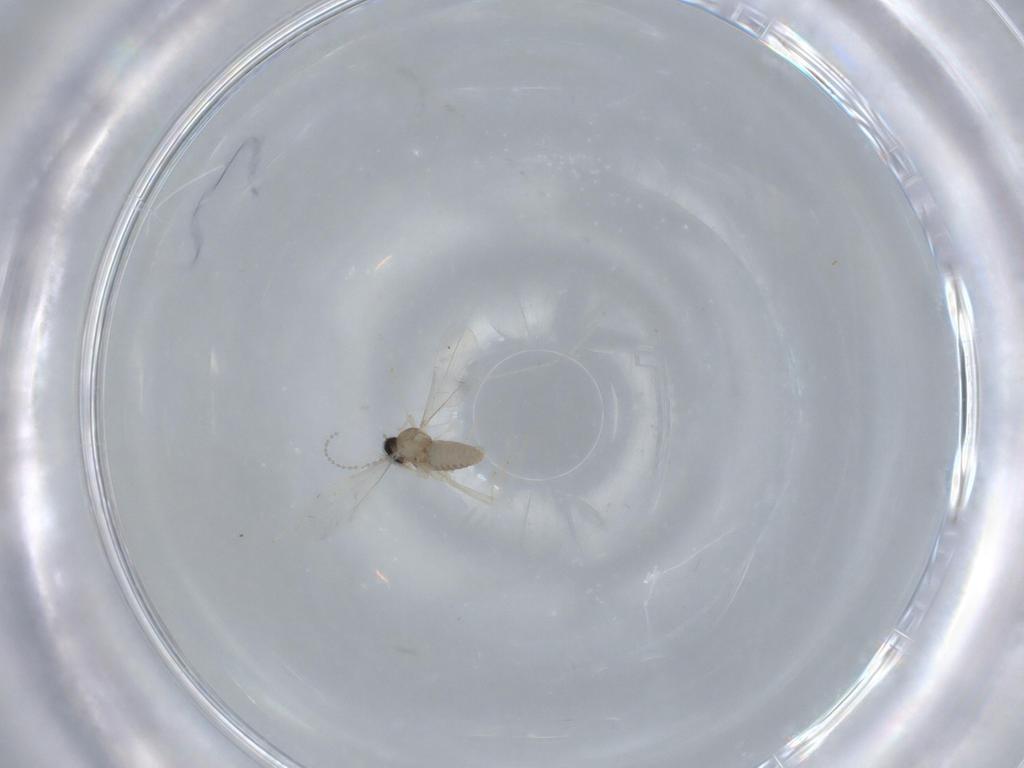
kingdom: Animalia
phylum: Arthropoda
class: Insecta
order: Diptera
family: Cecidomyiidae
